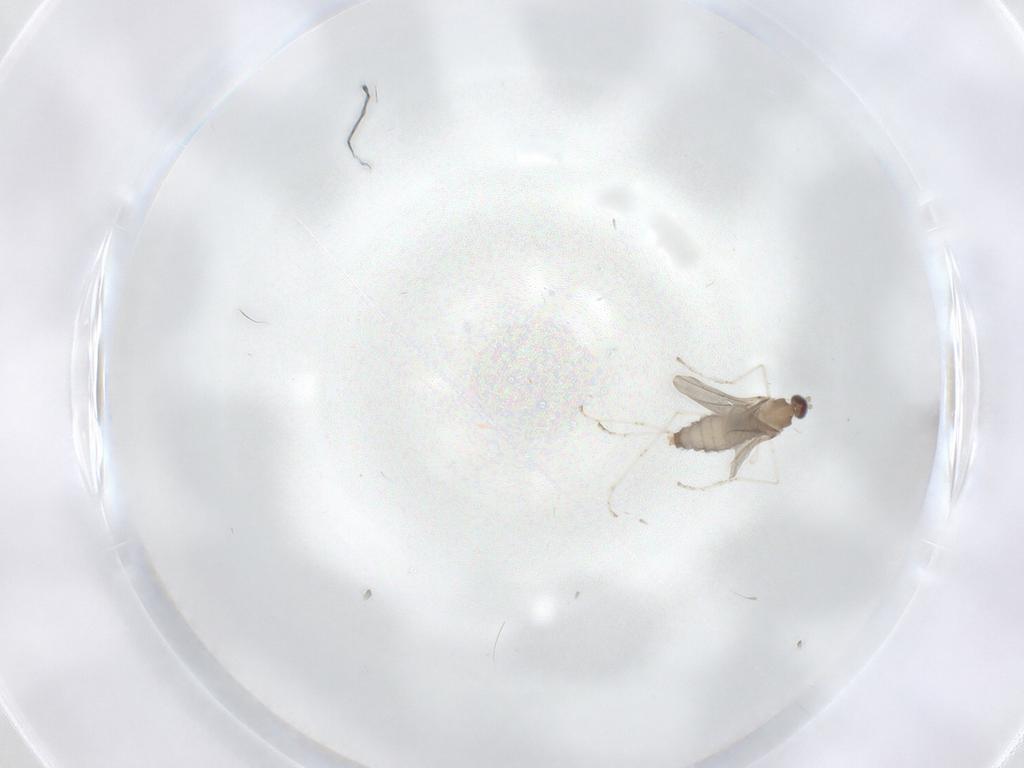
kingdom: Animalia
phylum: Arthropoda
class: Insecta
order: Diptera
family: Cecidomyiidae
